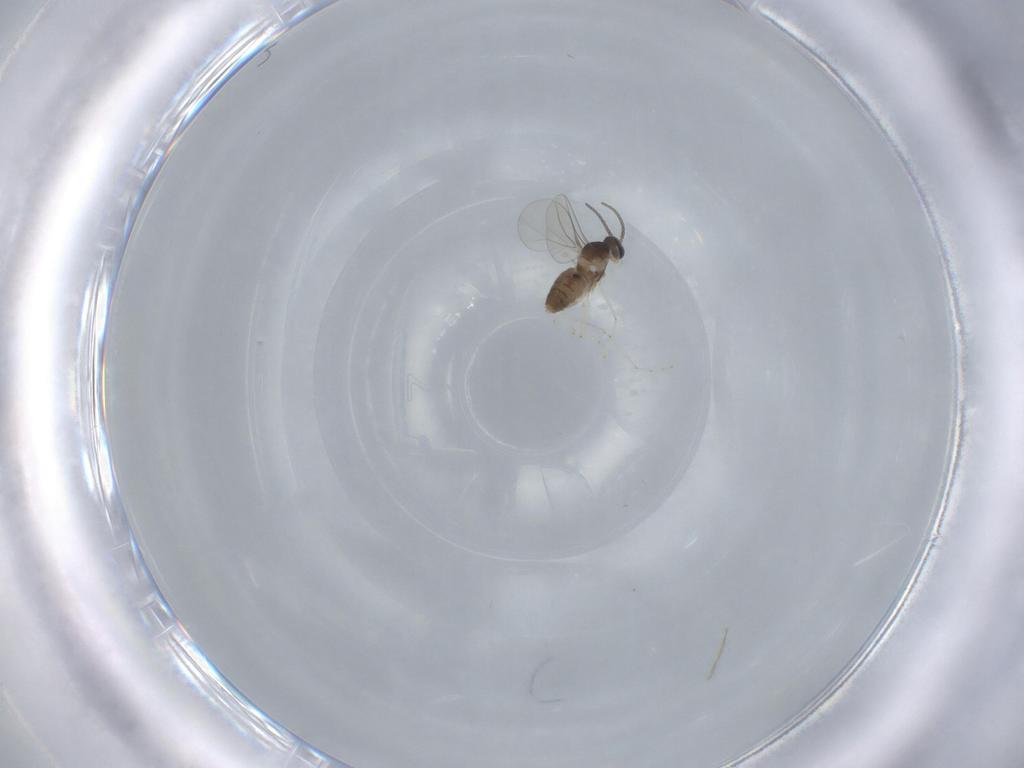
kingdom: Animalia
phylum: Arthropoda
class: Insecta
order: Diptera
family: Cecidomyiidae
